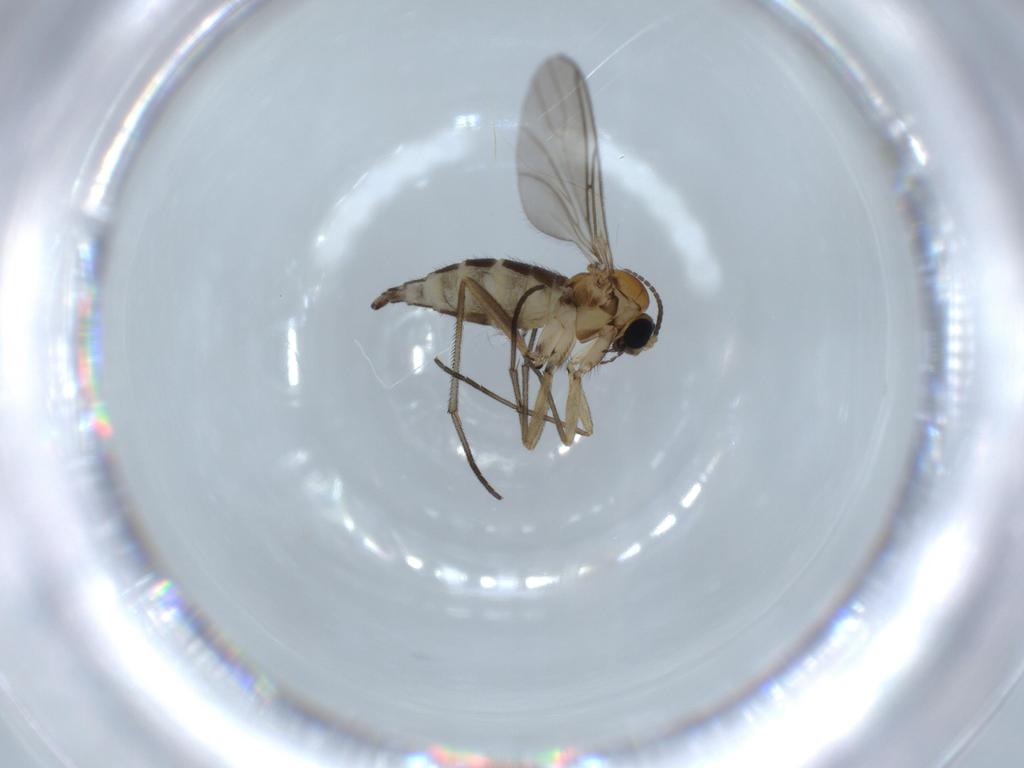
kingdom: Animalia
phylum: Arthropoda
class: Insecta
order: Diptera
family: Sciaridae
